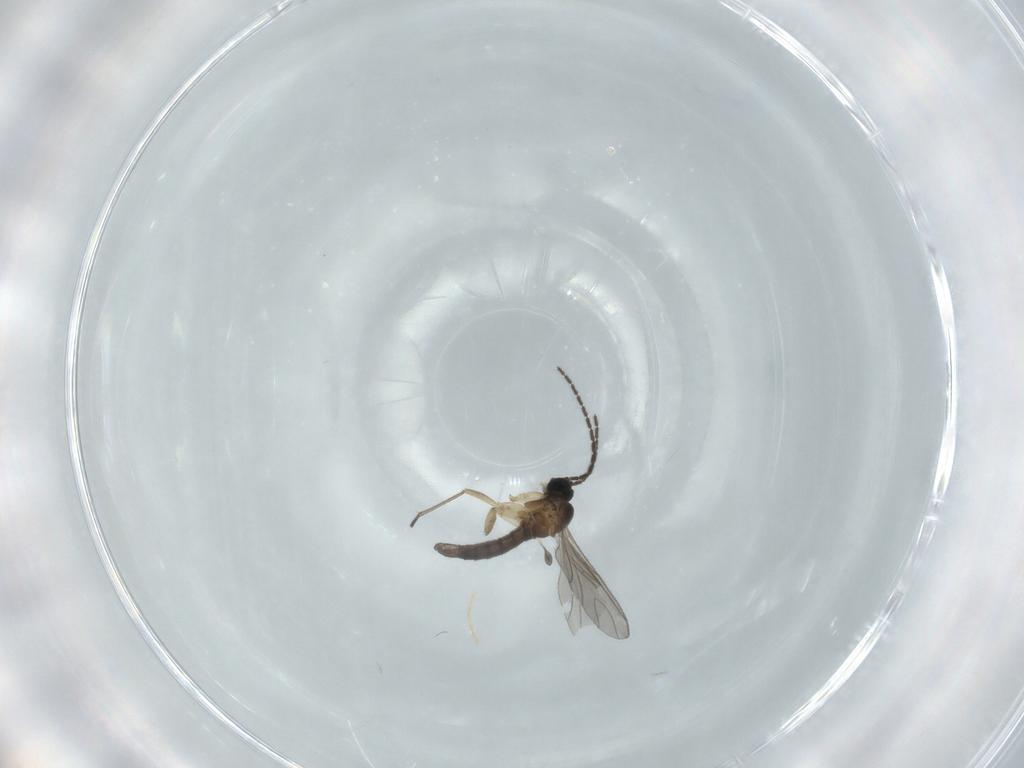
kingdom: Animalia
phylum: Arthropoda
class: Insecta
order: Diptera
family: Sciaridae
